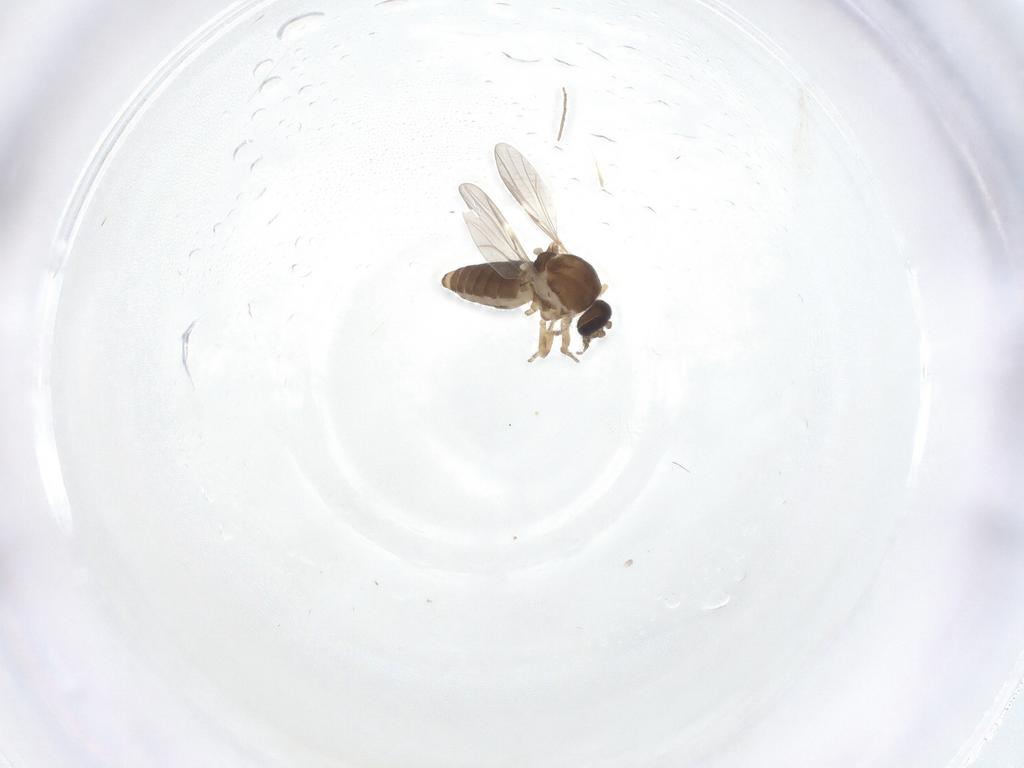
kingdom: Animalia
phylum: Arthropoda
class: Insecta
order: Diptera
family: Ceratopogonidae
